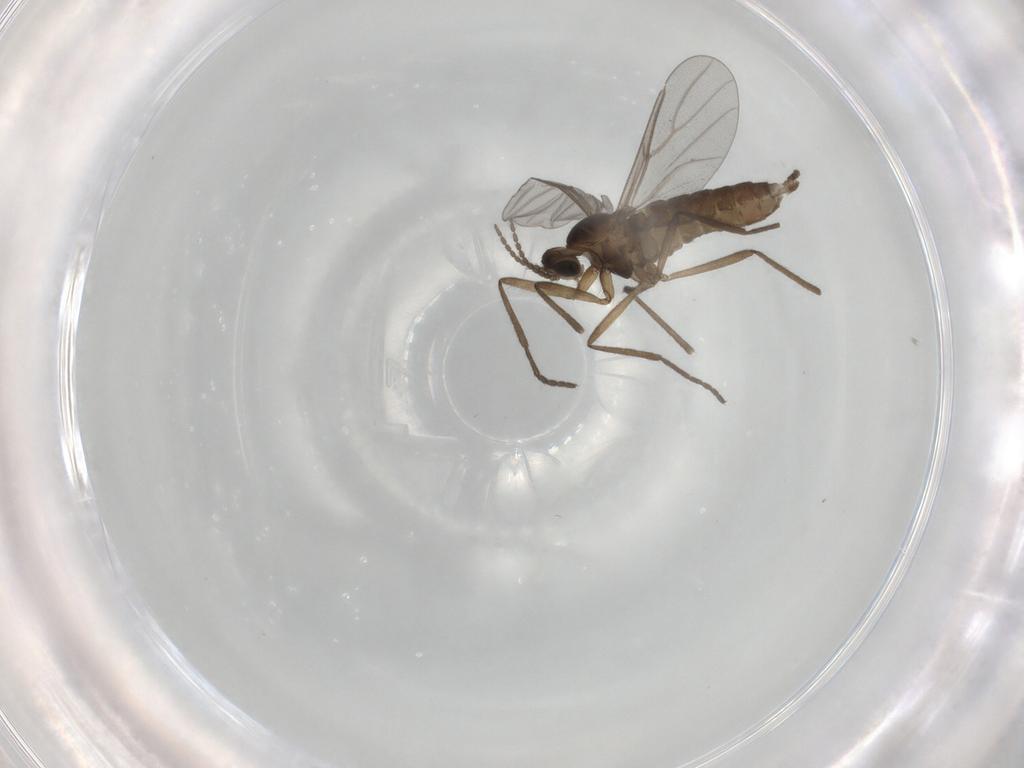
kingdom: Animalia
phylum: Arthropoda
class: Insecta
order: Diptera
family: Cecidomyiidae
